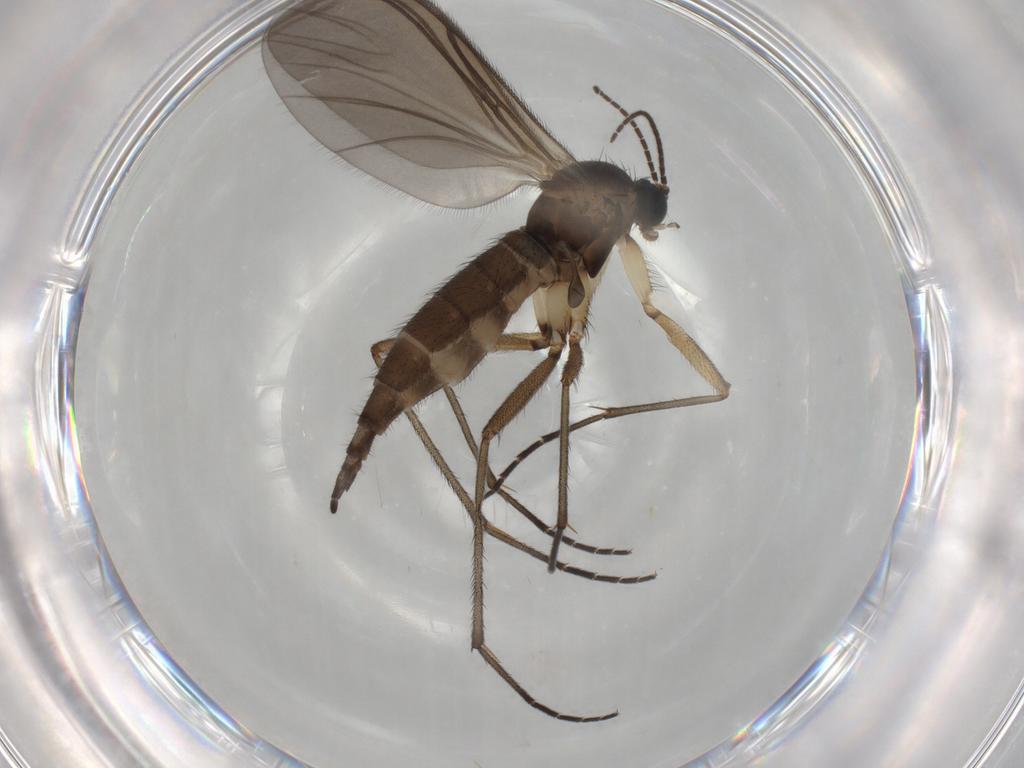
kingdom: Animalia
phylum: Arthropoda
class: Insecta
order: Diptera
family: Sciaridae
